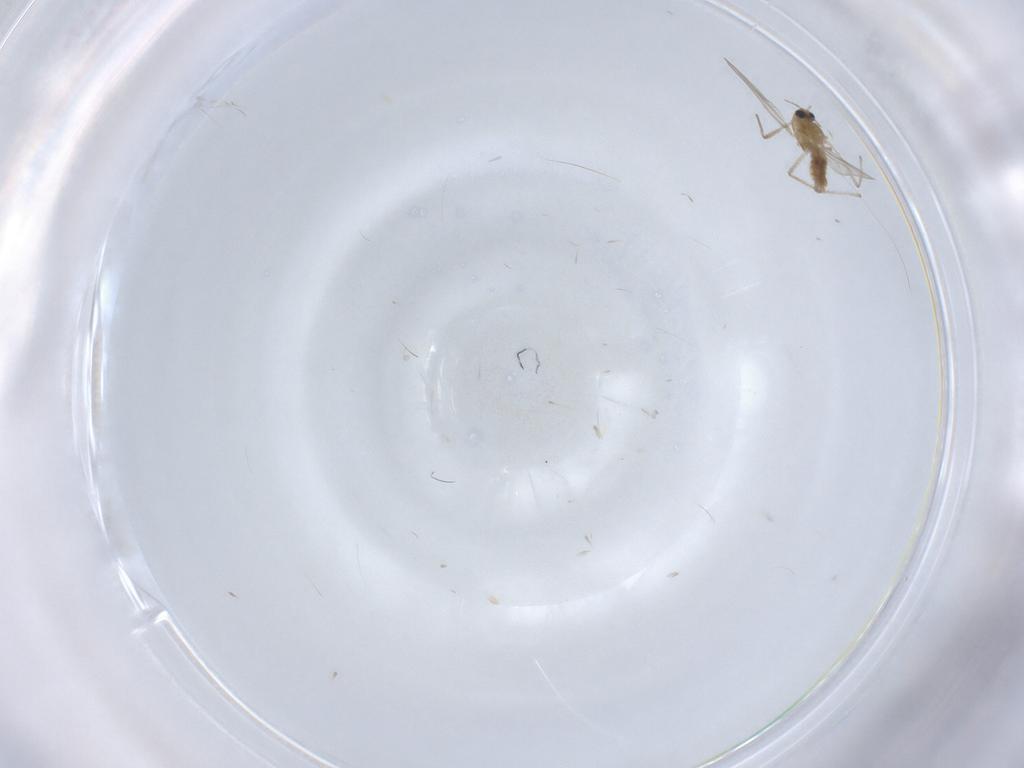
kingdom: Animalia
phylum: Arthropoda
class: Insecta
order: Diptera
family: Chironomidae
